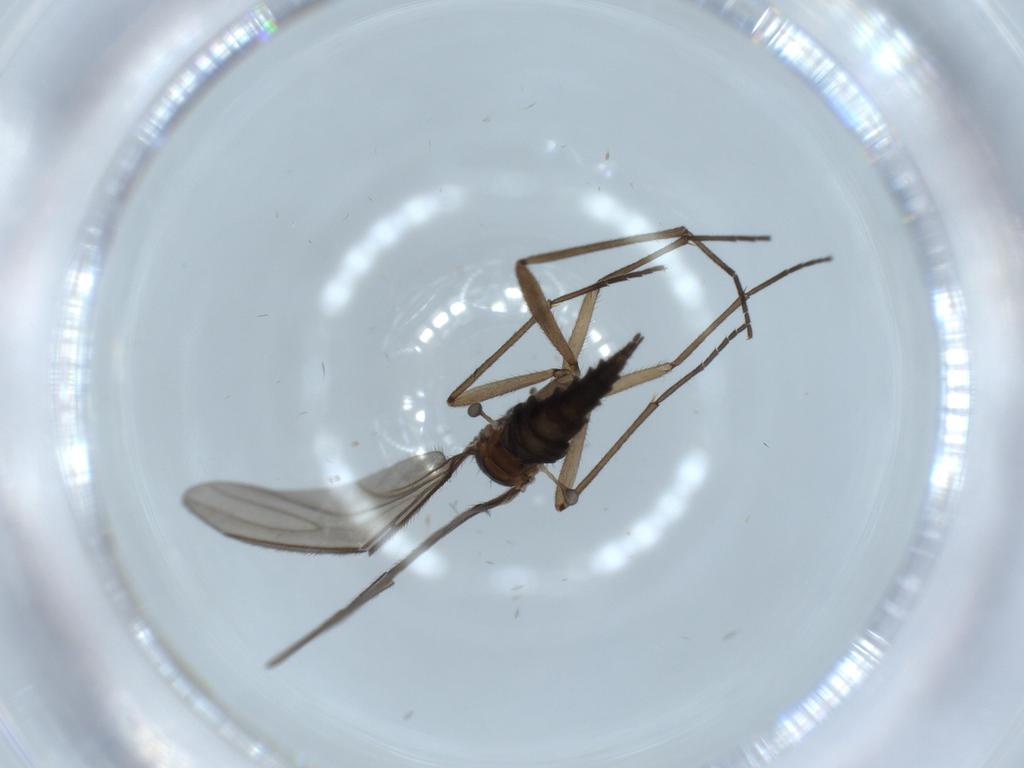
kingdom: Animalia
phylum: Arthropoda
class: Insecta
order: Diptera
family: Sciaridae
